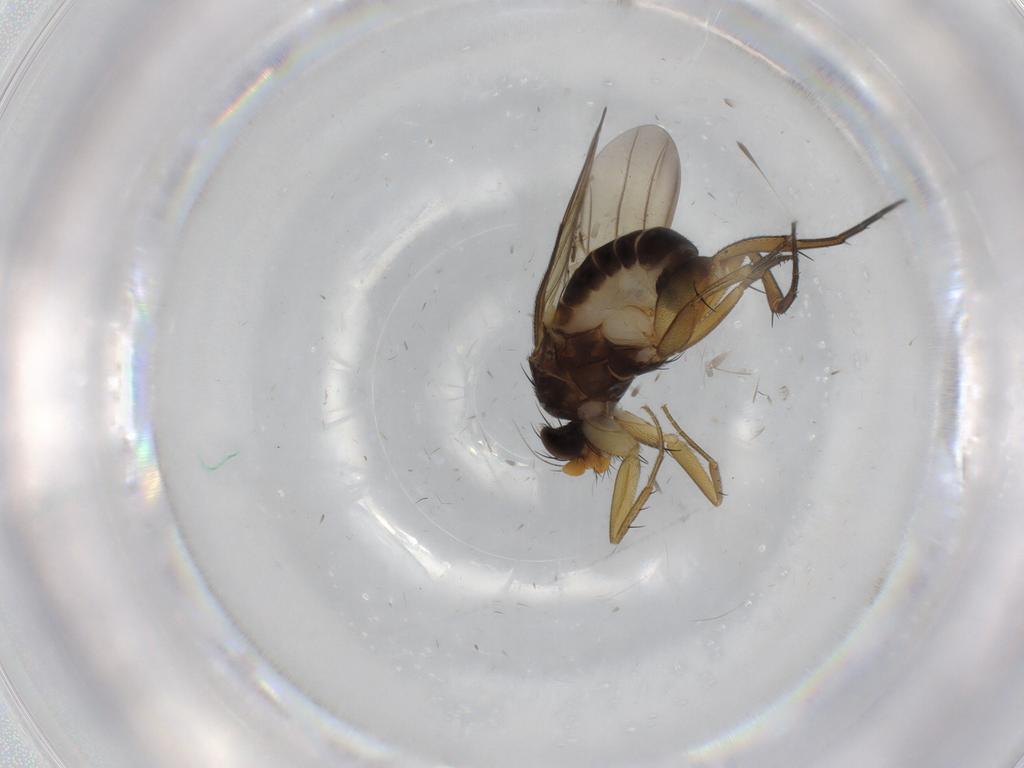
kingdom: Animalia
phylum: Arthropoda
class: Insecta
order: Diptera
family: Phoridae
